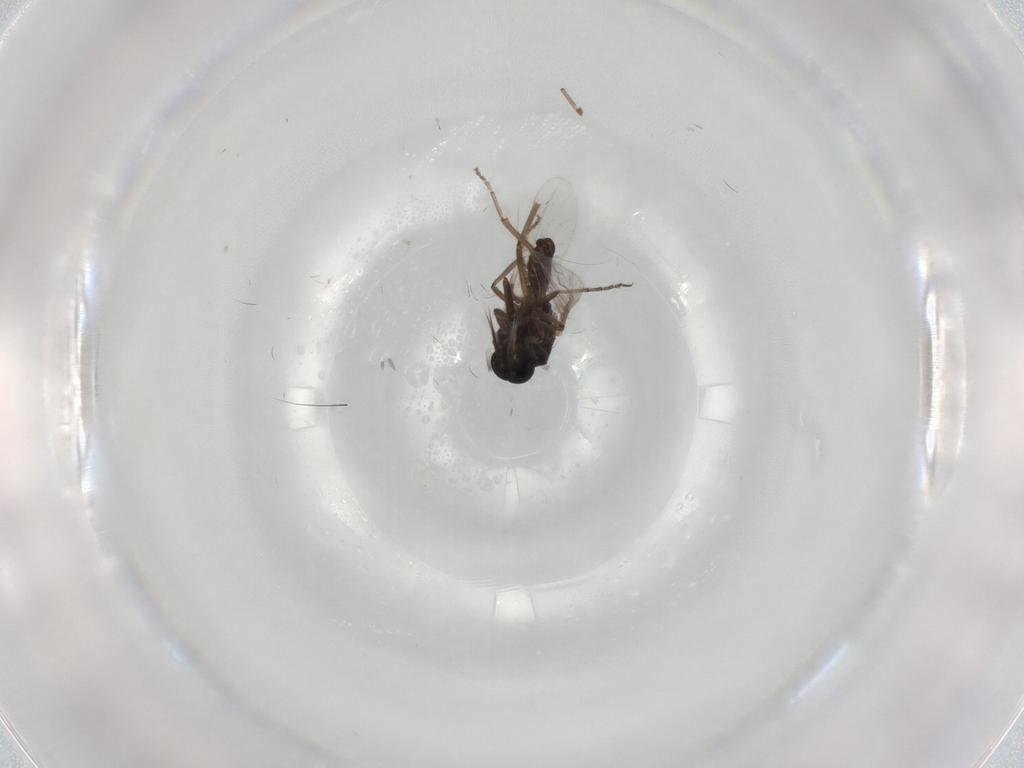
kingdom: Animalia
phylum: Arthropoda
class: Insecta
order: Diptera
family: Ceratopogonidae
